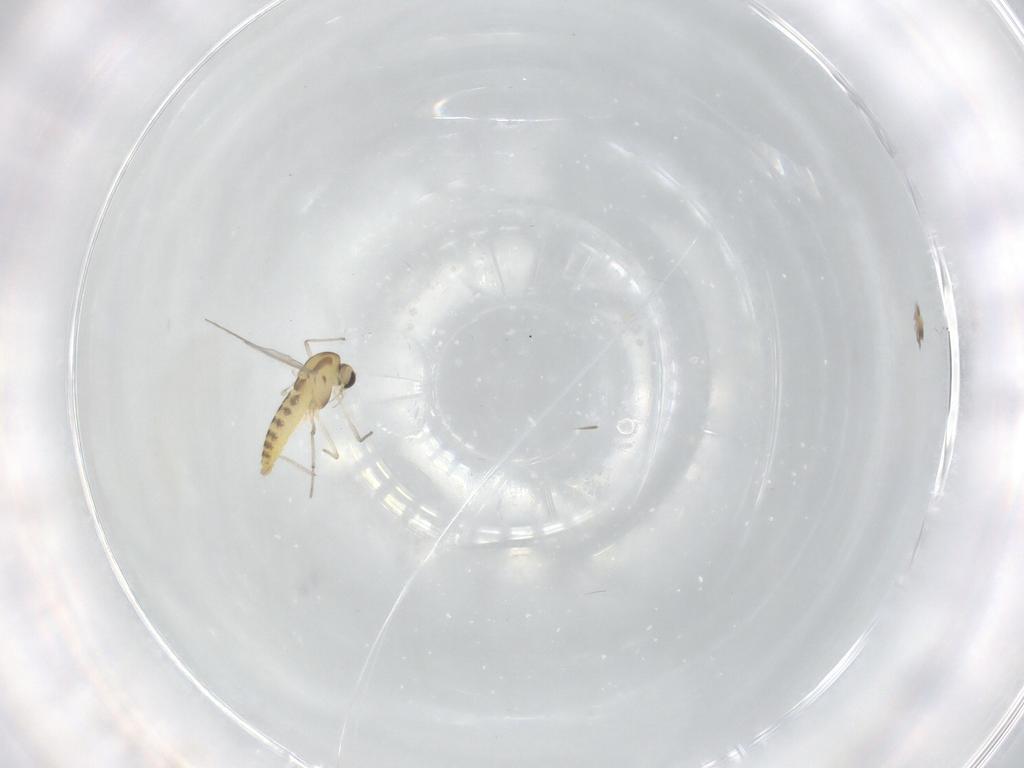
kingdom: Animalia
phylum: Arthropoda
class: Insecta
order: Diptera
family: Chironomidae
